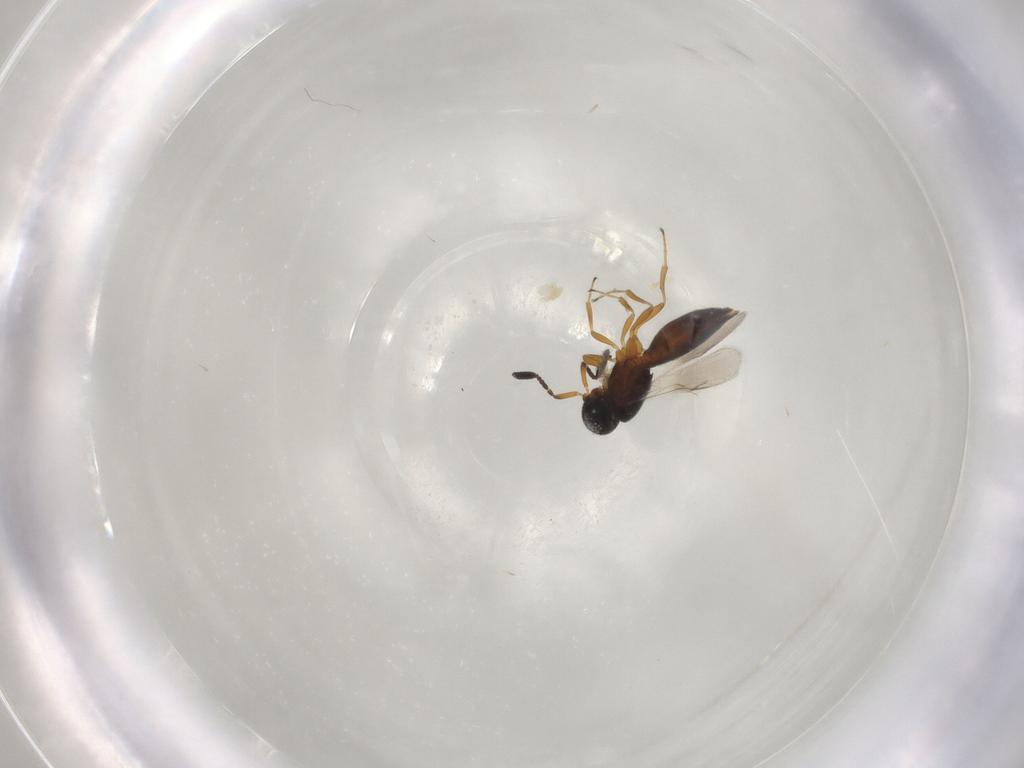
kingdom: Animalia
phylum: Arthropoda
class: Insecta
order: Hymenoptera
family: Scelionidae
